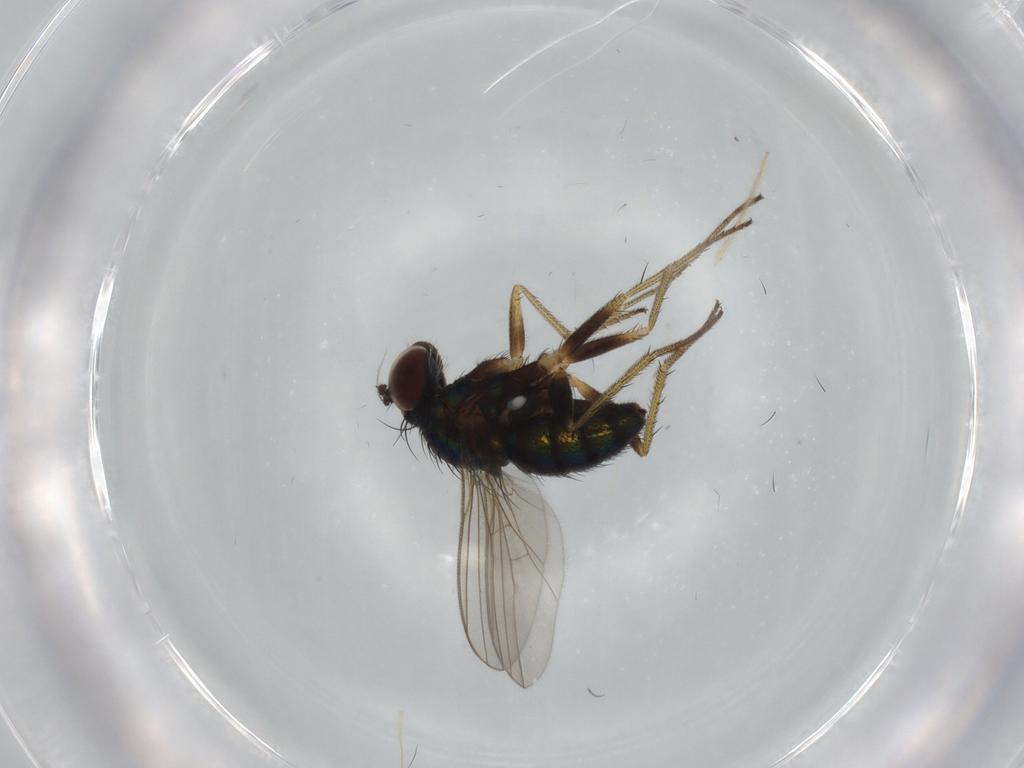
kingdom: Animalia
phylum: Arthropoda
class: Insecta
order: Diptera
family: Dolichopodidae
